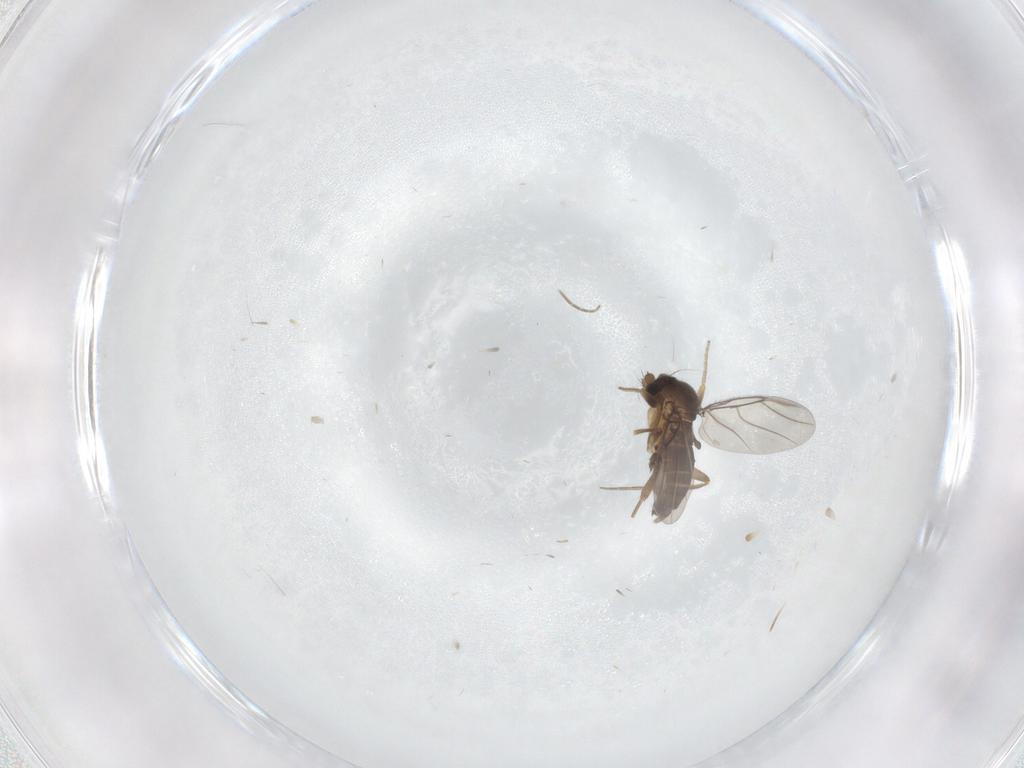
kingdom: Animalia
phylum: Arthropoda
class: Insecta
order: Diptera
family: Phoridae
